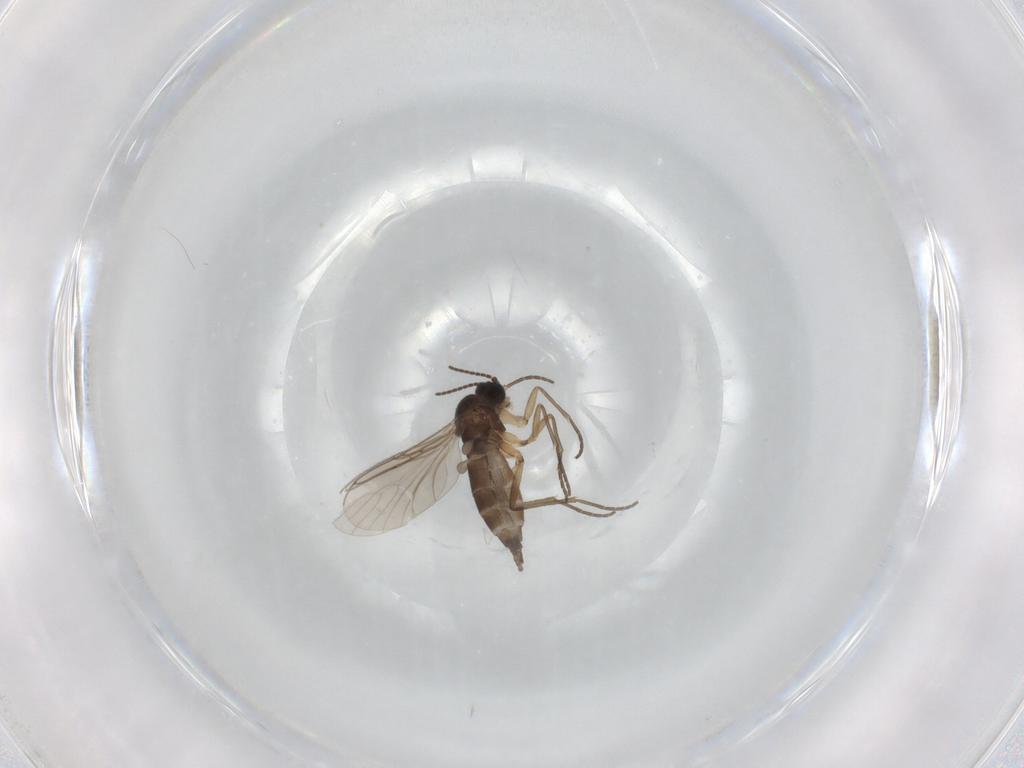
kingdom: Animalia
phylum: Arthropoda
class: Insecta
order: Diptera
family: Sciaridae
